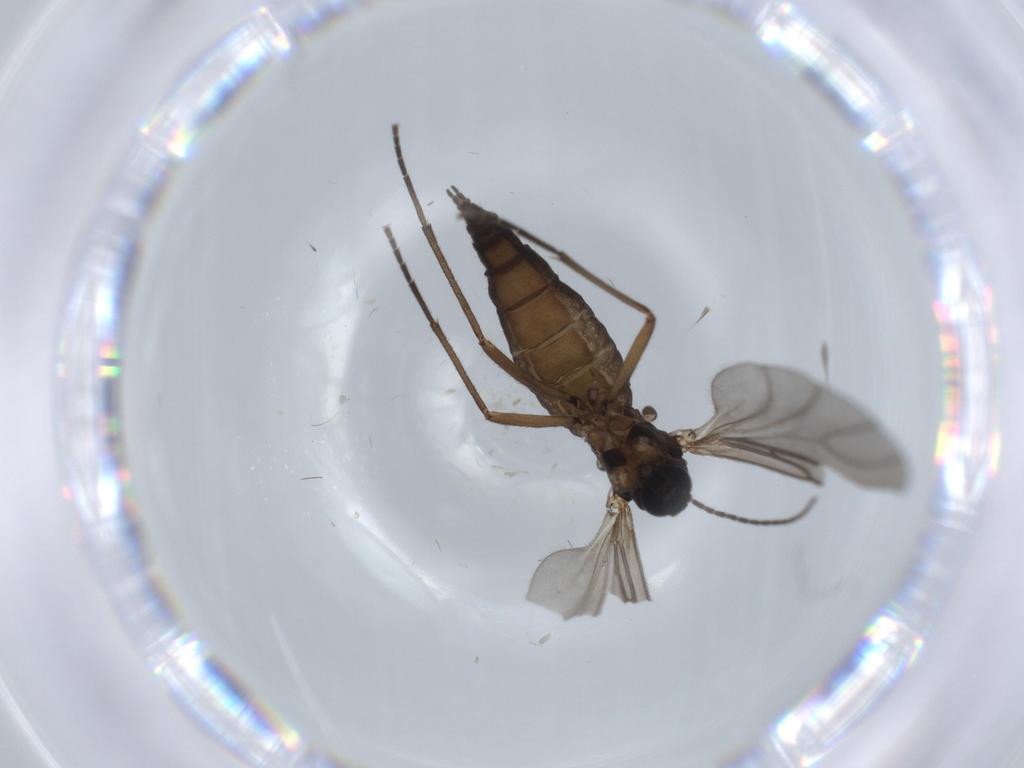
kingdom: Animalia
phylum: Arthropoda
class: Insecta
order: Diptera
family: Sciaridae
